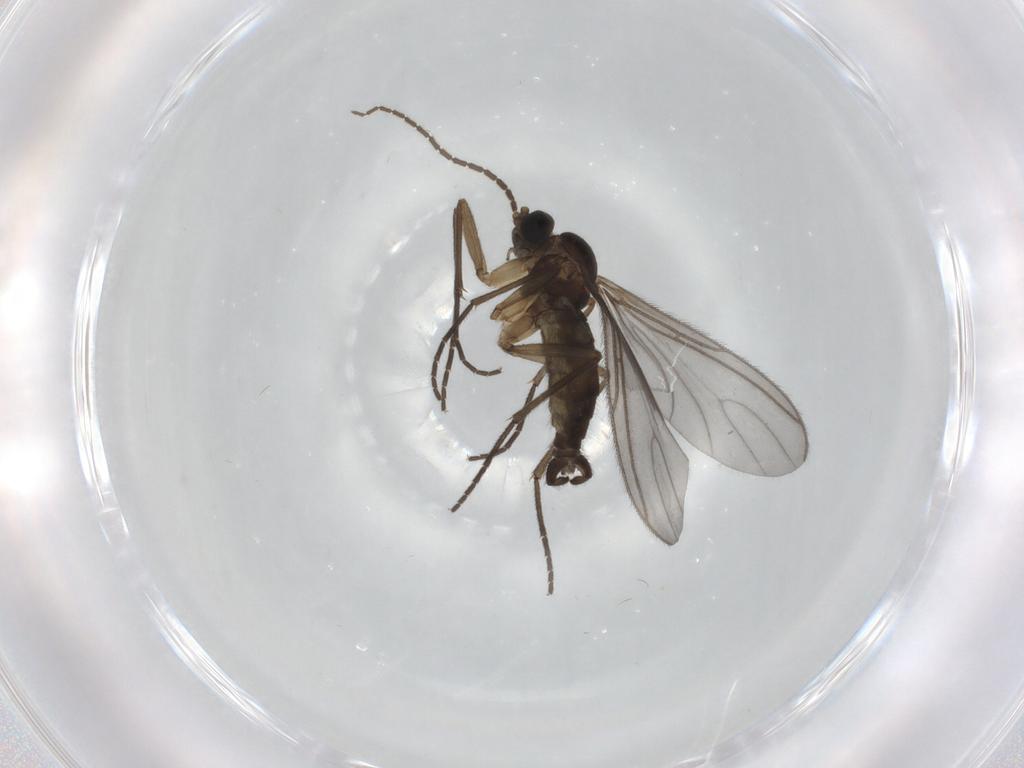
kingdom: Animalia
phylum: Arthropoda
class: Insecta
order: Diptera
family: Sciaridae
